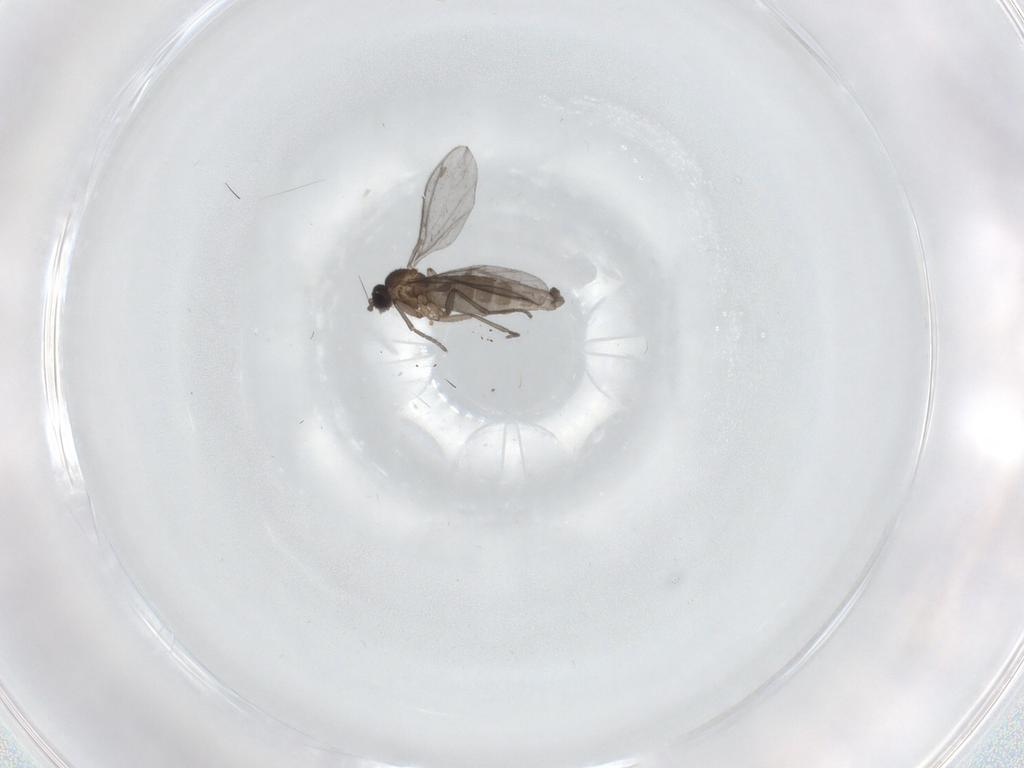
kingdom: Animalia
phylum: Arthropoda
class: Insecta
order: Diptera
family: Sciaridae
